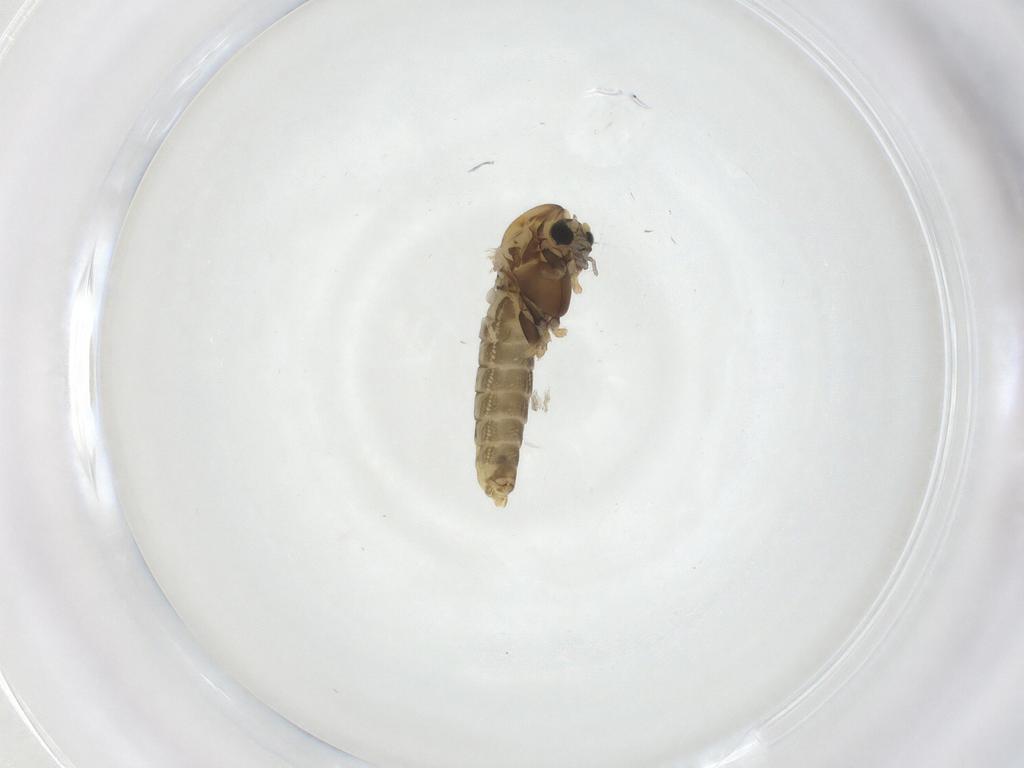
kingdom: Animalia
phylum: Arthropoda
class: Insecta
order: Diptera
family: Chironomidae
